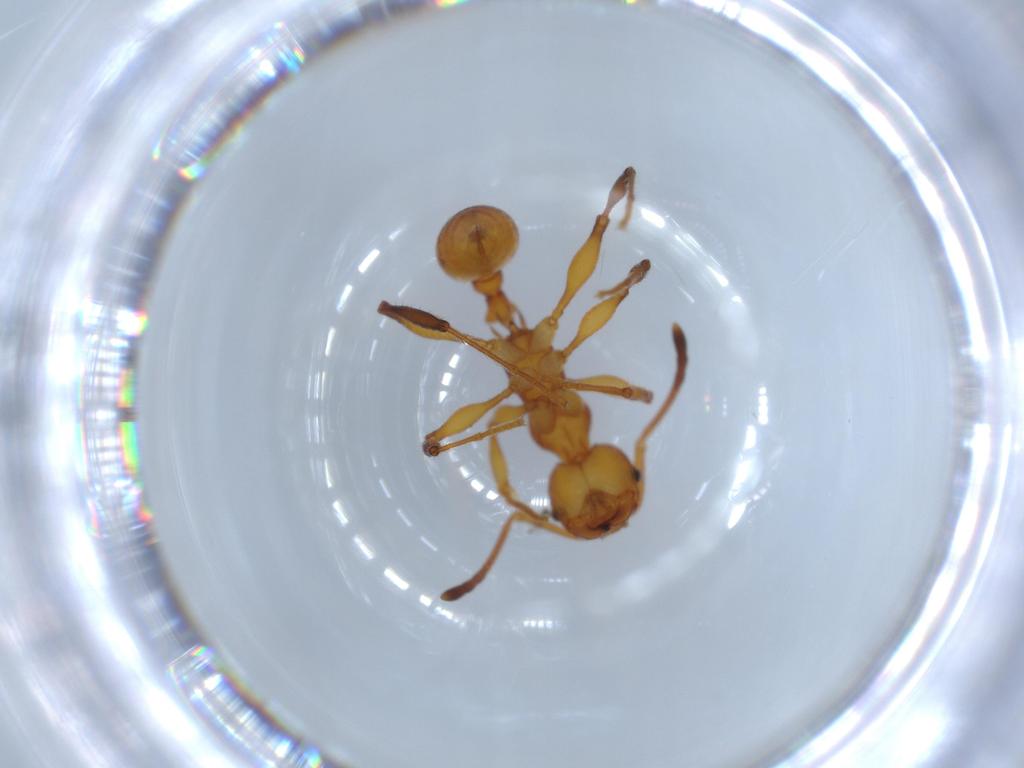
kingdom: Animalia
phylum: Arthropoda
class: Insecta
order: Hymenoptera
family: Formicidae
